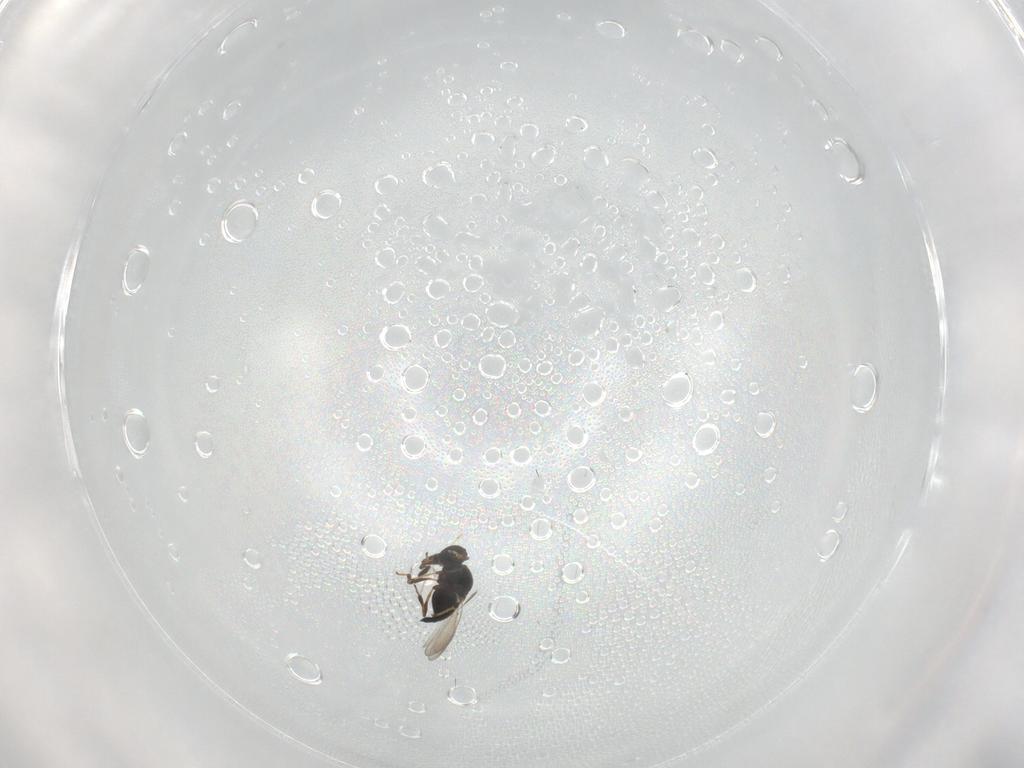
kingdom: Animalia
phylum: Arthropoda
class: Insecta
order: Hymenoptera
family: Platygastridae
